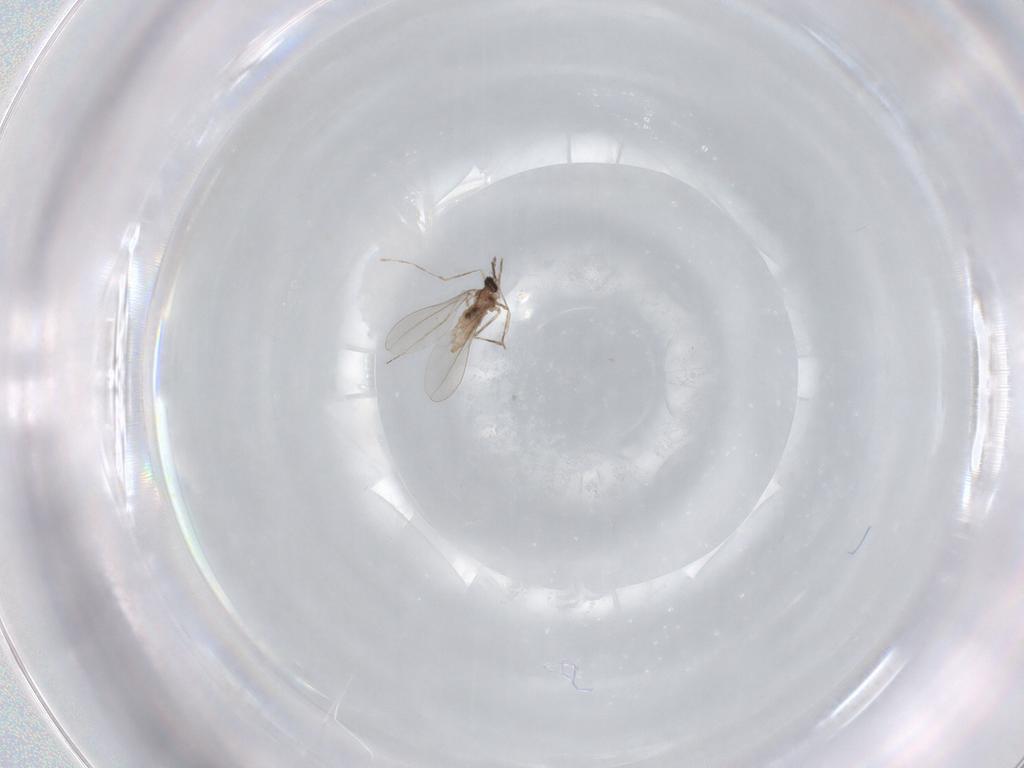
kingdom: Animalia
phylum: Arthropoda
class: Insecta
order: Diptera
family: Cecidomyiidae
